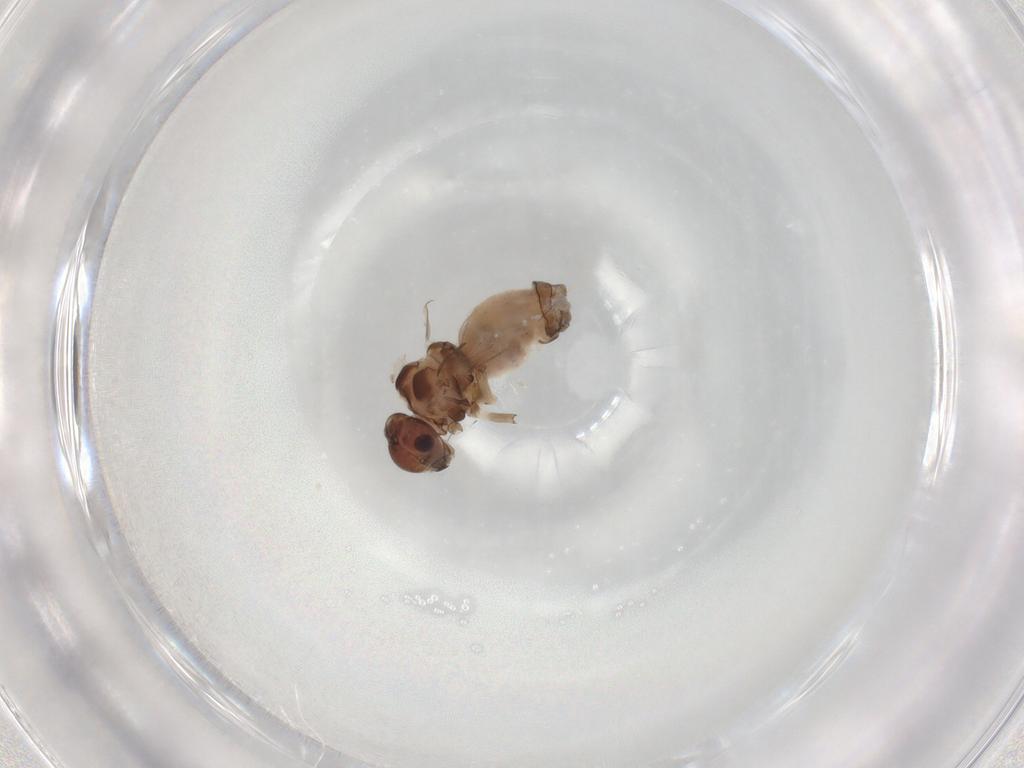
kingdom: Animalia
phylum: Arthropoda
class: Insecta
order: Psocodea
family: Peripsocidae
